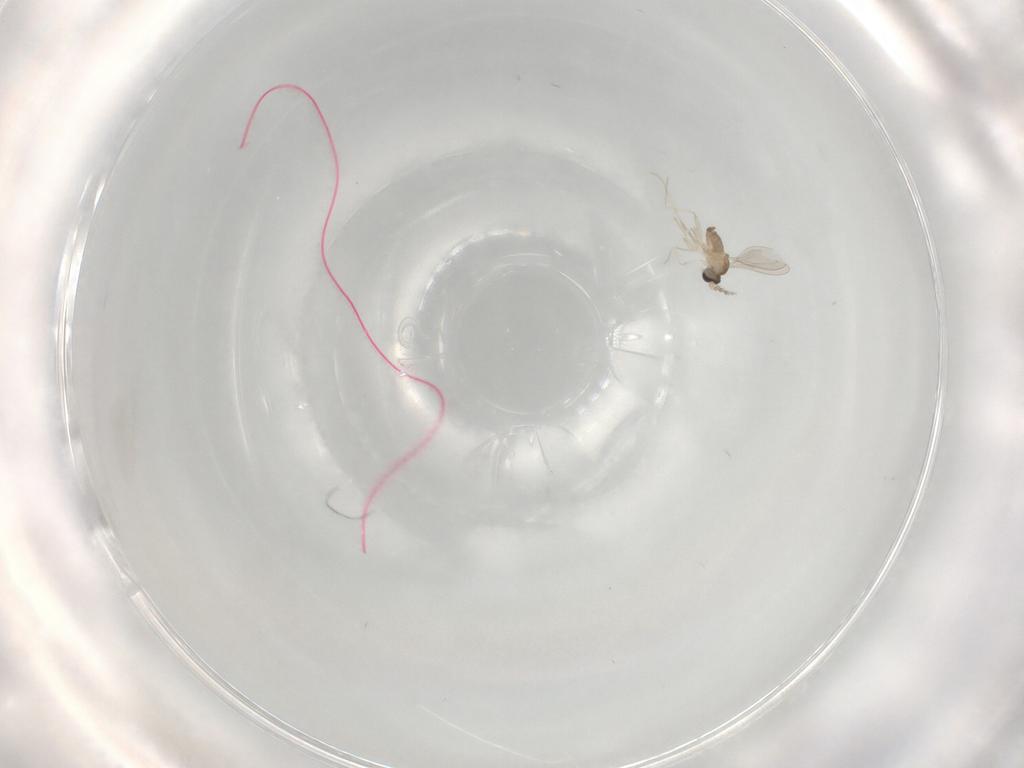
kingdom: Animalia
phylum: Arthropoda
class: Insecta
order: Diptera
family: Cecidomyiidae
